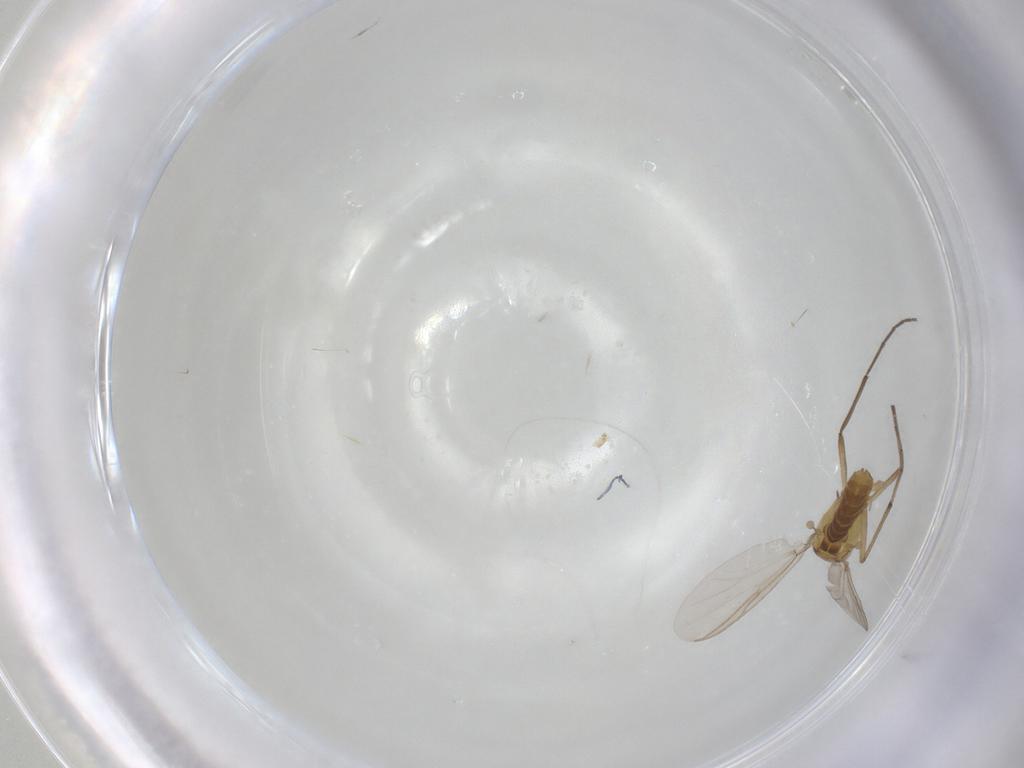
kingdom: Animalia
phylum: Arthropoda
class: Insecta
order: Diptera
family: Chironomidae
